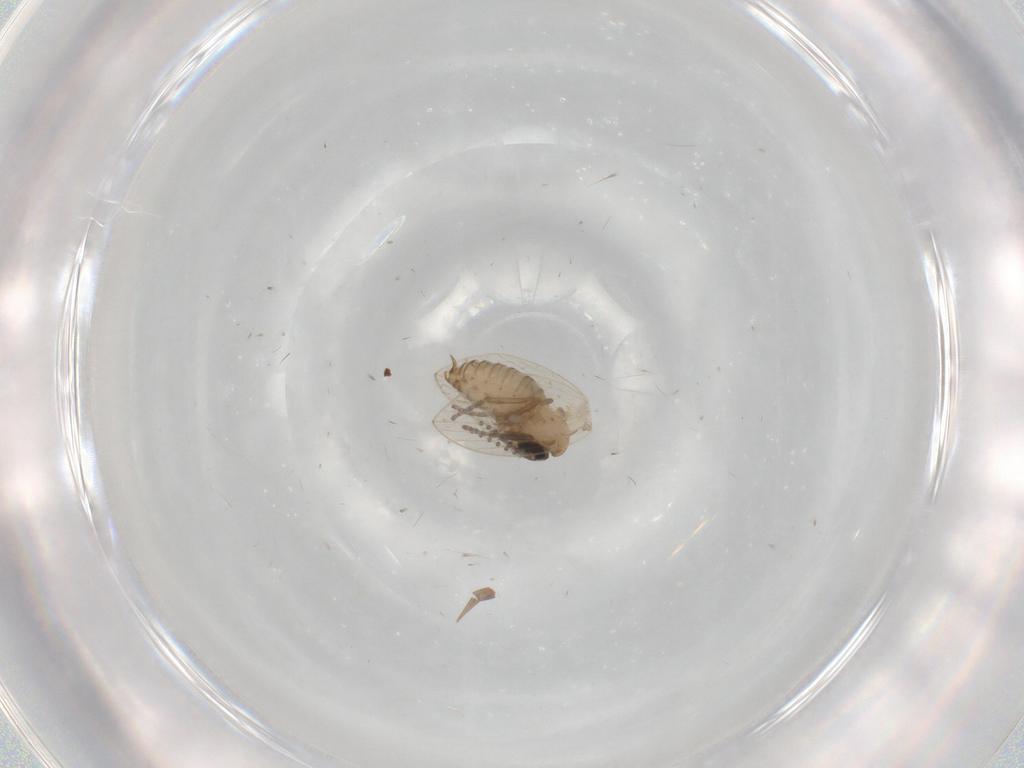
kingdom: Animalia
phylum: Arthropoda
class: Insecta
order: Diptera
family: Psychodidae
